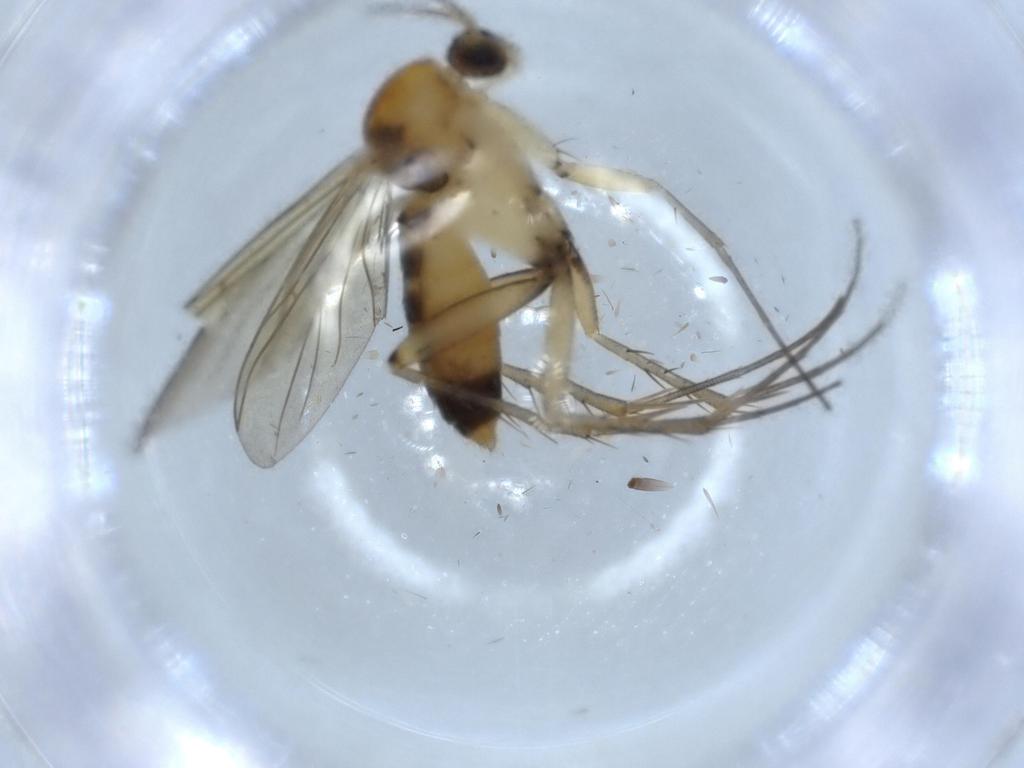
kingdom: Animalia
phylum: Arthropoda
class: Insecta
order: Diptera
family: Mycetophilidae
